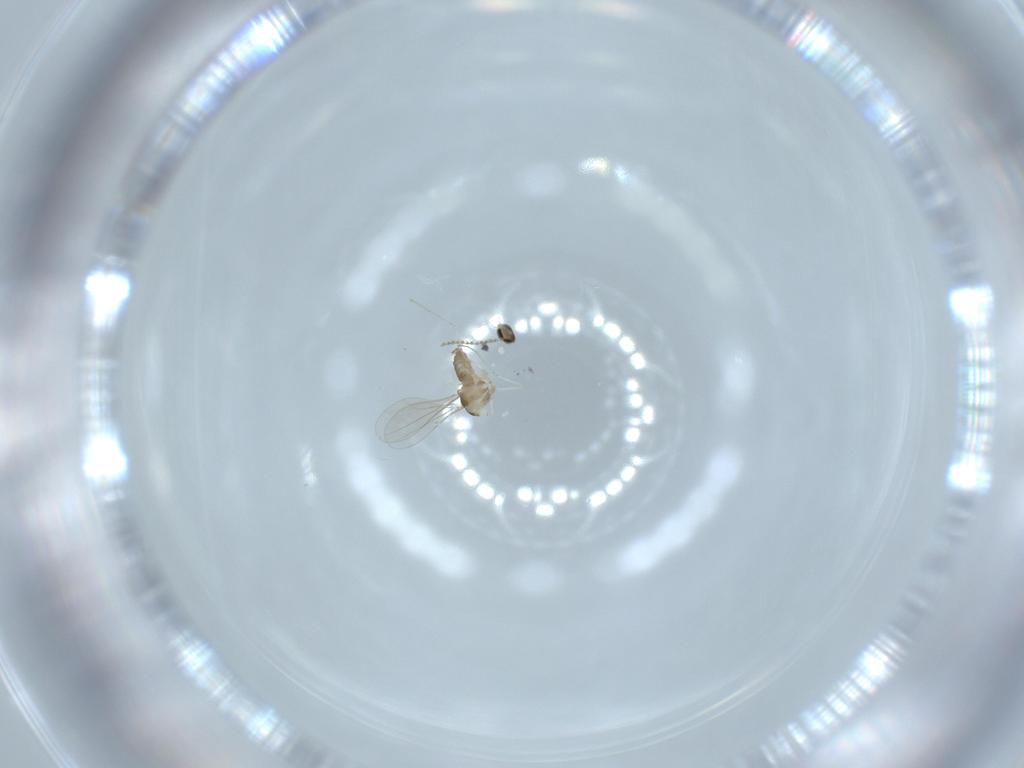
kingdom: Animalia
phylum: Arthropoda
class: Insecta
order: Diptera
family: Cecidomyiidae
